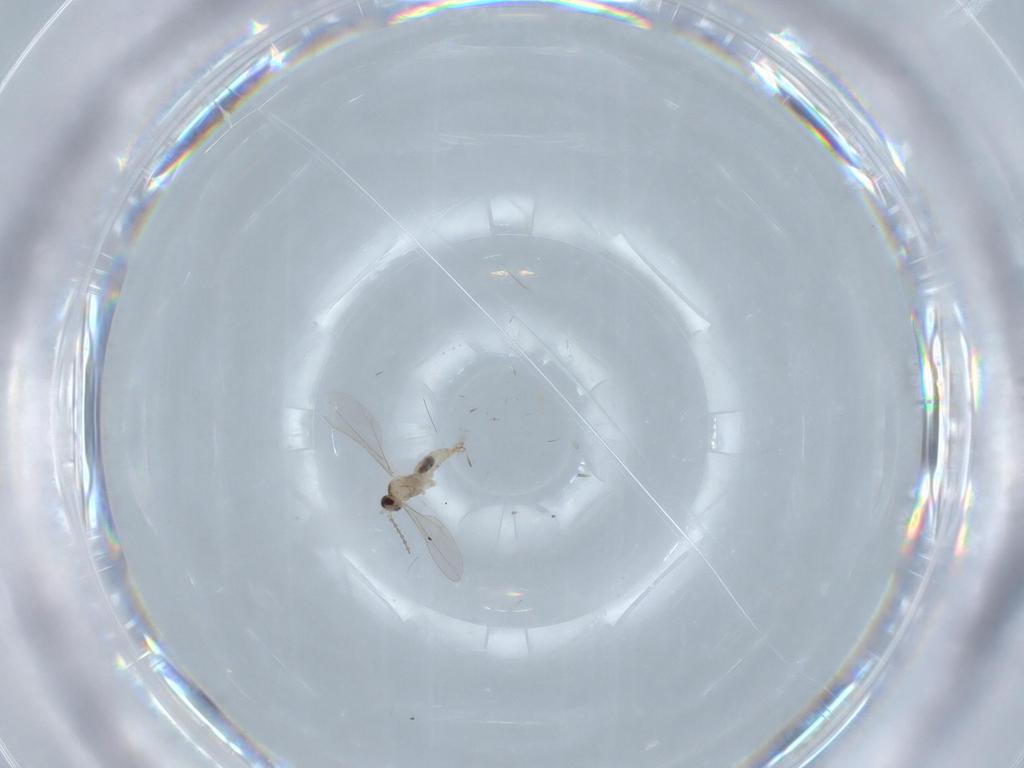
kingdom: Animalia
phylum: Arthropoda
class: Insecta
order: Diptera
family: Cecidomyiidae
